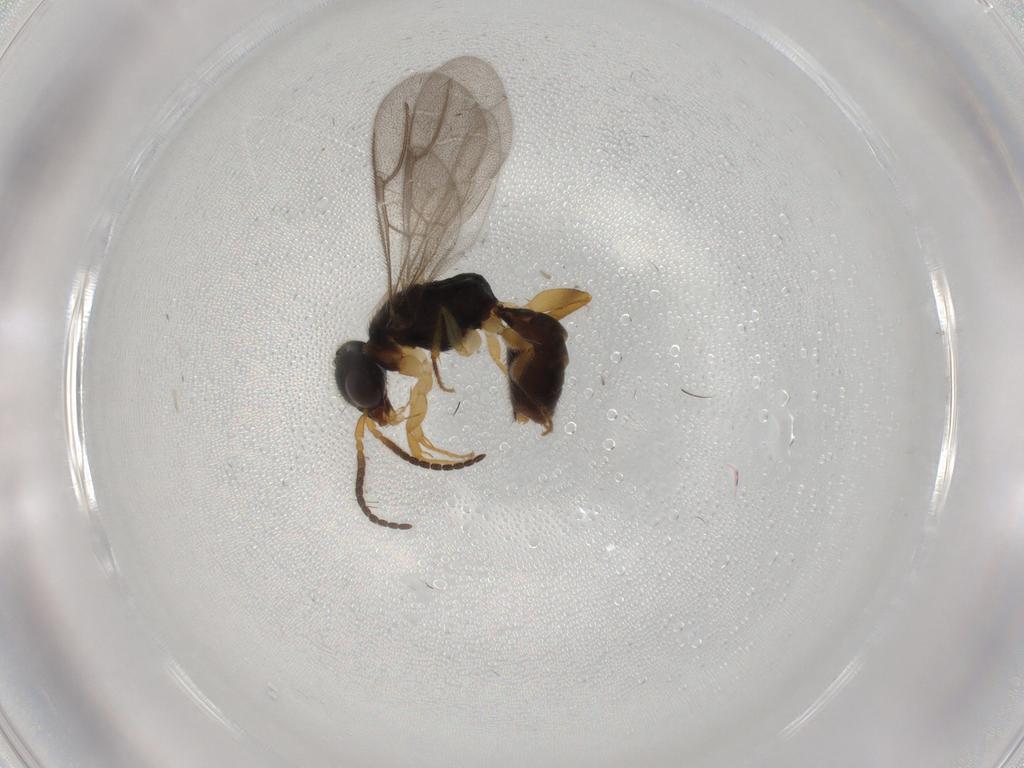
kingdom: Animalia
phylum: Arthropoda
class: Insecta
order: Hymenoptera
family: Bethylidae
